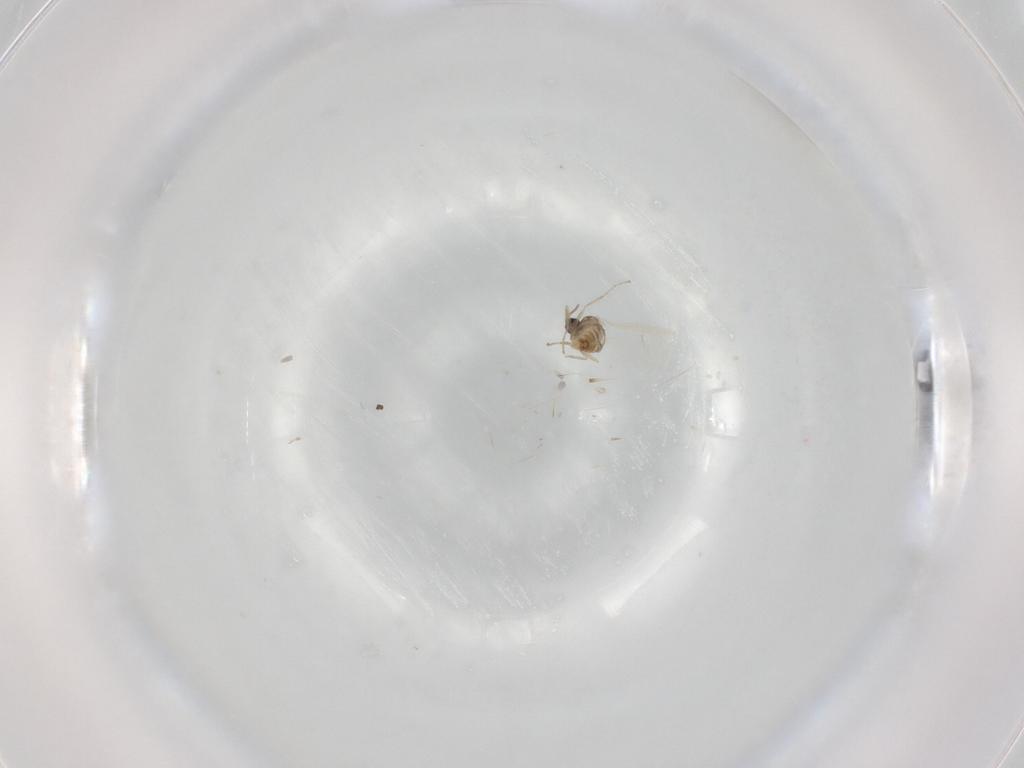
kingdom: Animalia
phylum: Arthropoda
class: Insecta
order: Diptera
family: Cecidomyiidae
